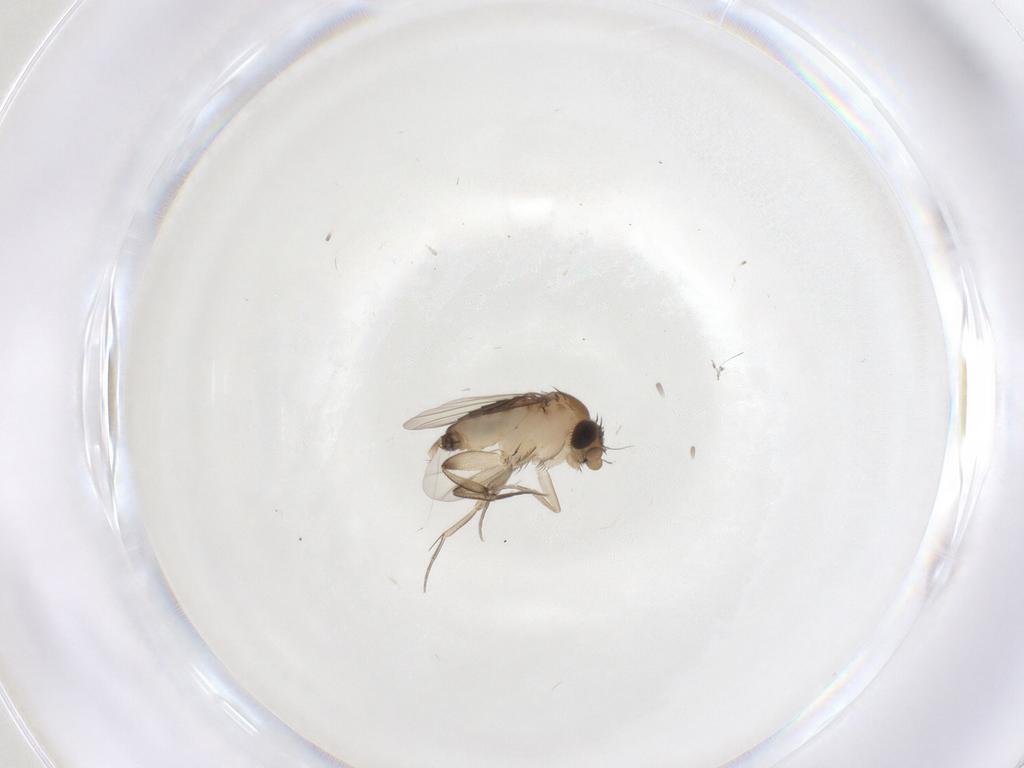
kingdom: Animalia
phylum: Arthropoda
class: Insecta
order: Diptera
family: Phoridae
